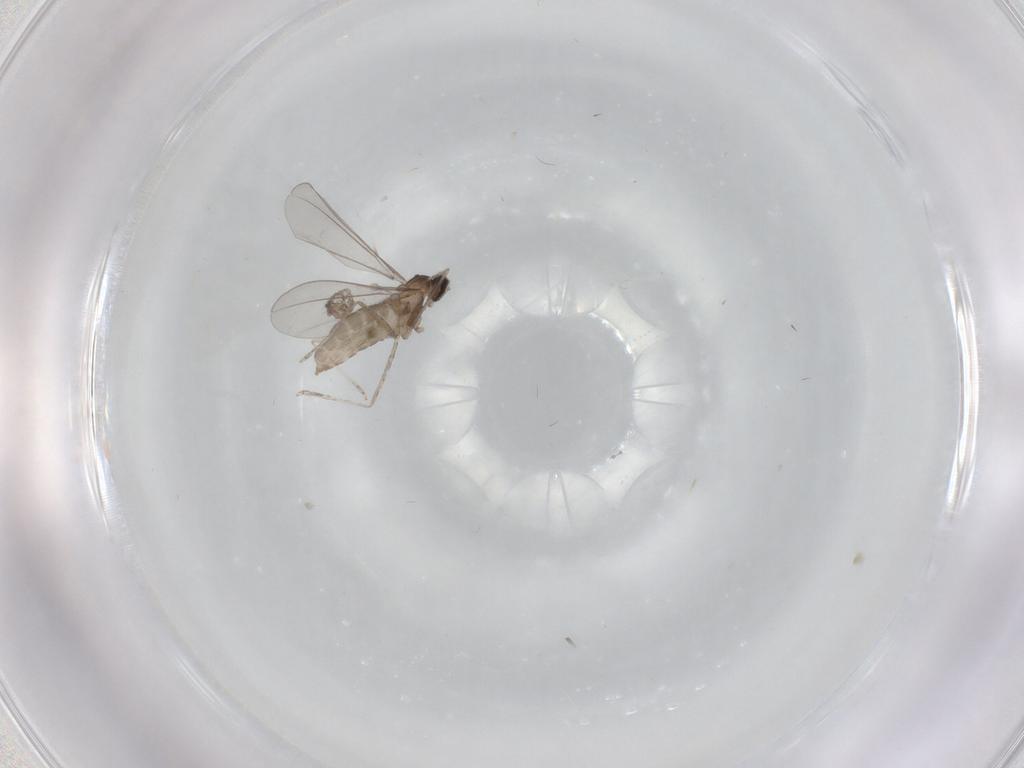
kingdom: Animalia
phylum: Arthropoda
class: Insecta
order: Diptera
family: Cecidomyiidae
